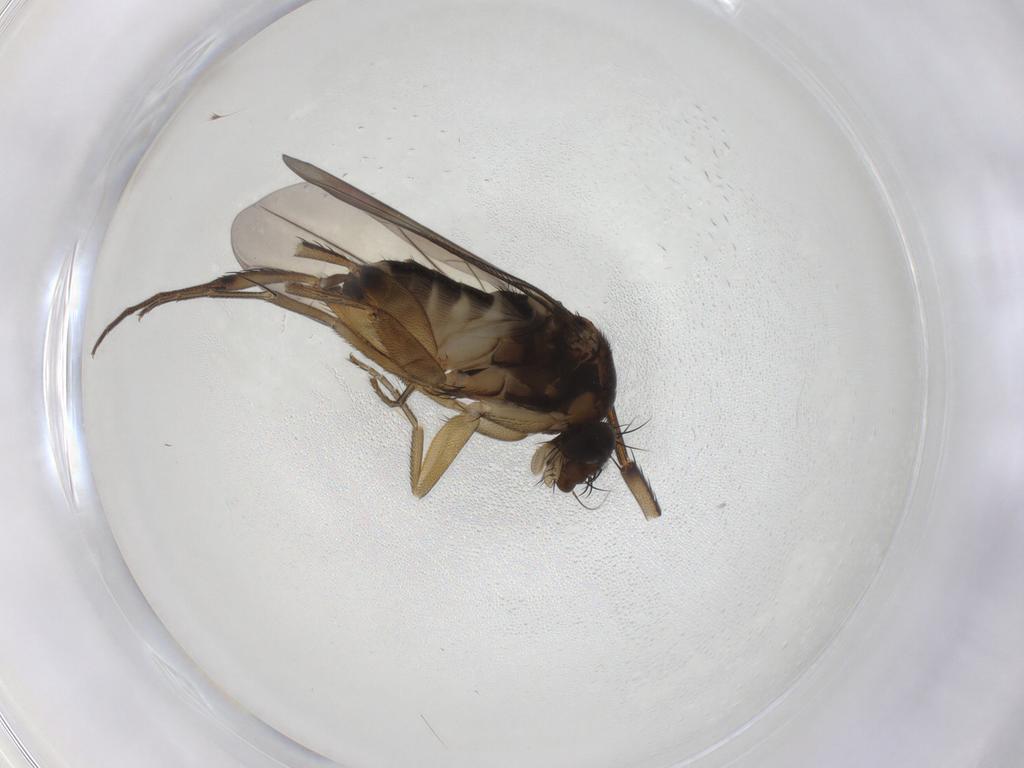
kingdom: Animalia
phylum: Arthropoda
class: Insecta
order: Diptera
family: Phoridae
